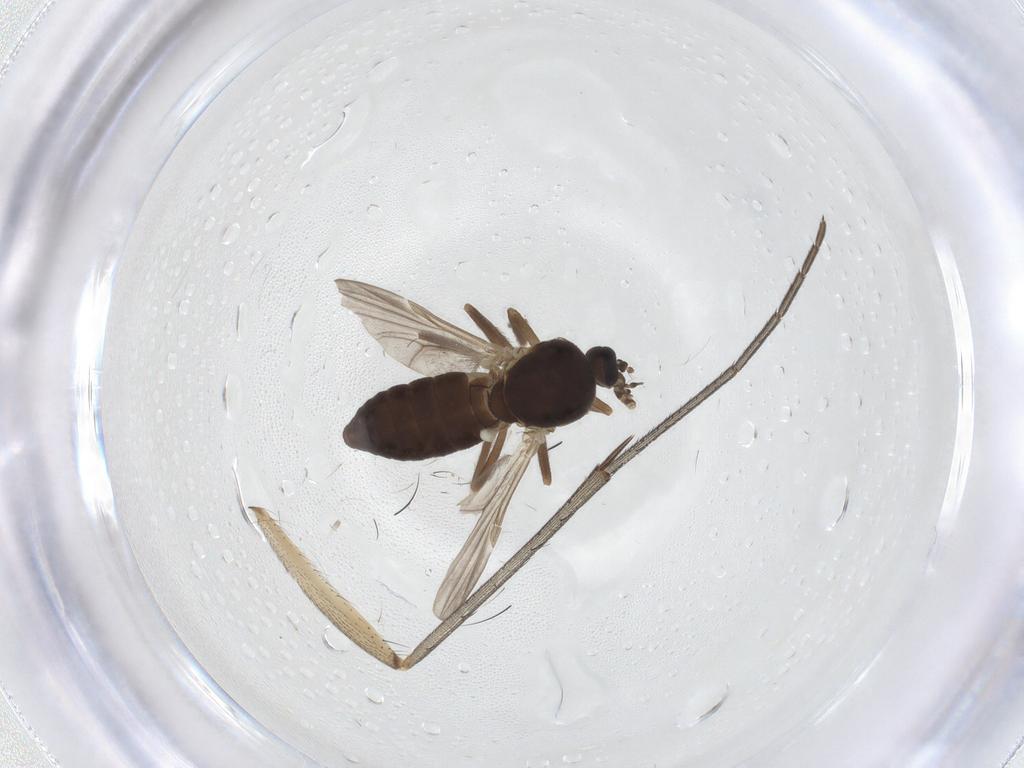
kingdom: Animalia
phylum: Arthropoda
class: Insecta
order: Diptera
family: Ceratopogonidae
